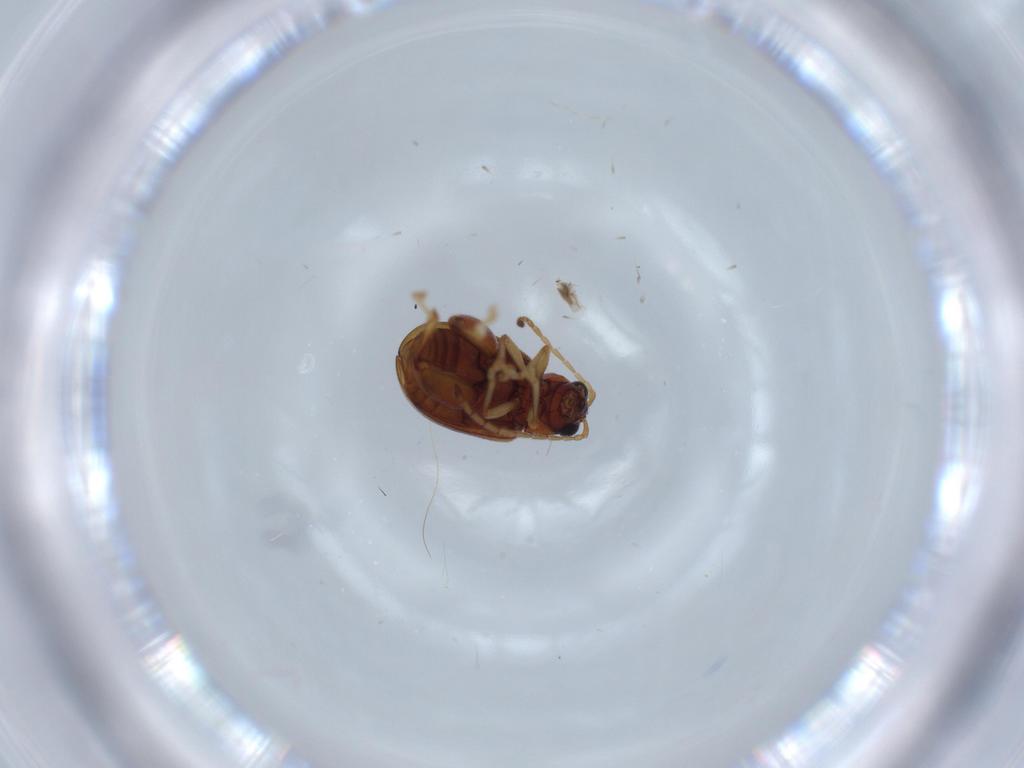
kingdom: Animalia
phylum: Arthropoda
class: Insecta
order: Coleoptera
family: Chrysomelidae
